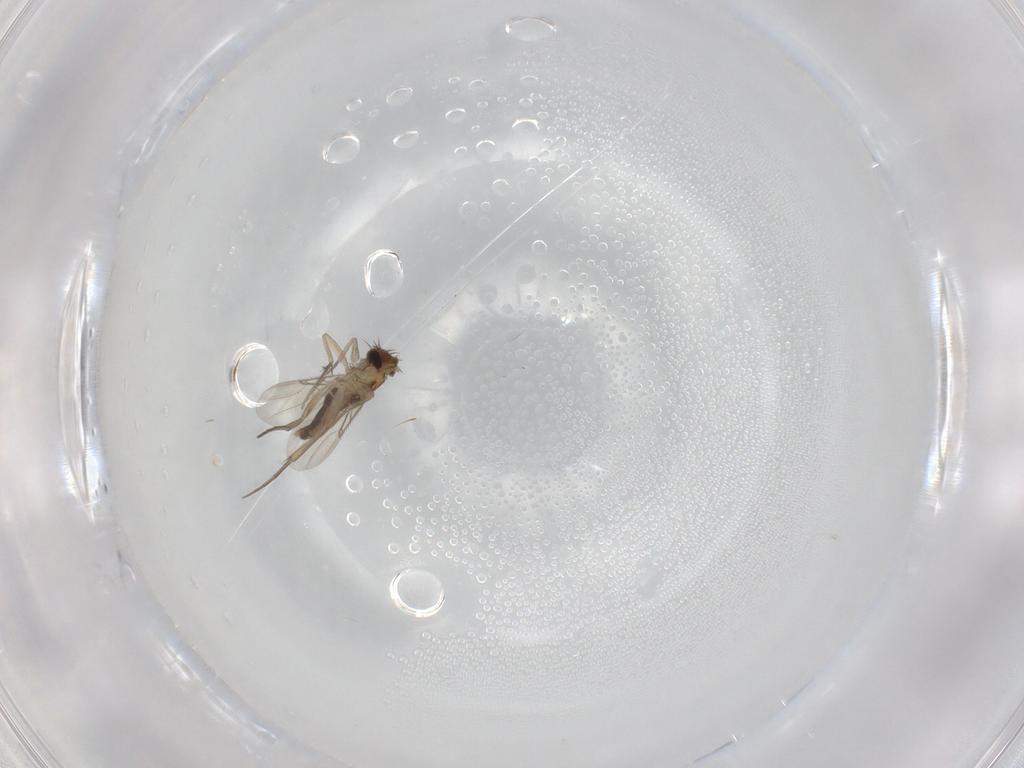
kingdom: Animalia
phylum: Arthropoda
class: Insecta
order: Diptera
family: Phoridae
